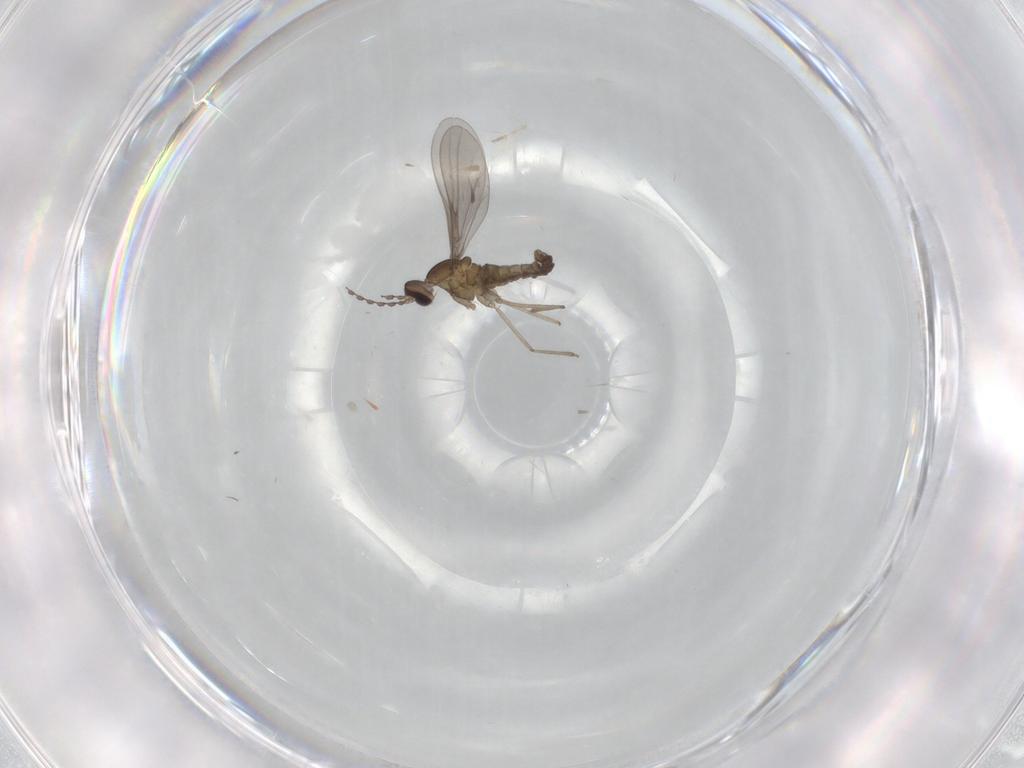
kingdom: Animalia
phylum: Arthropoda
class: Insecta
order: Diptera
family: Cecidomyiidae
